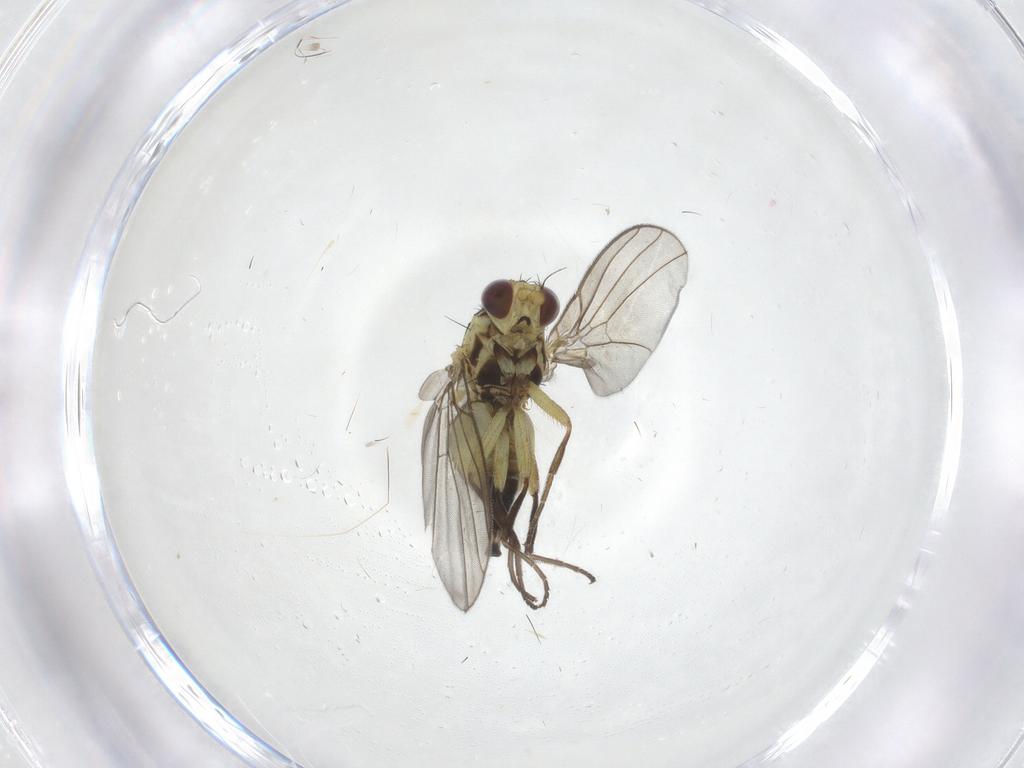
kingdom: Animalia
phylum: Arthropoda
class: Insecta
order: Diptera
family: Agromyzidae
